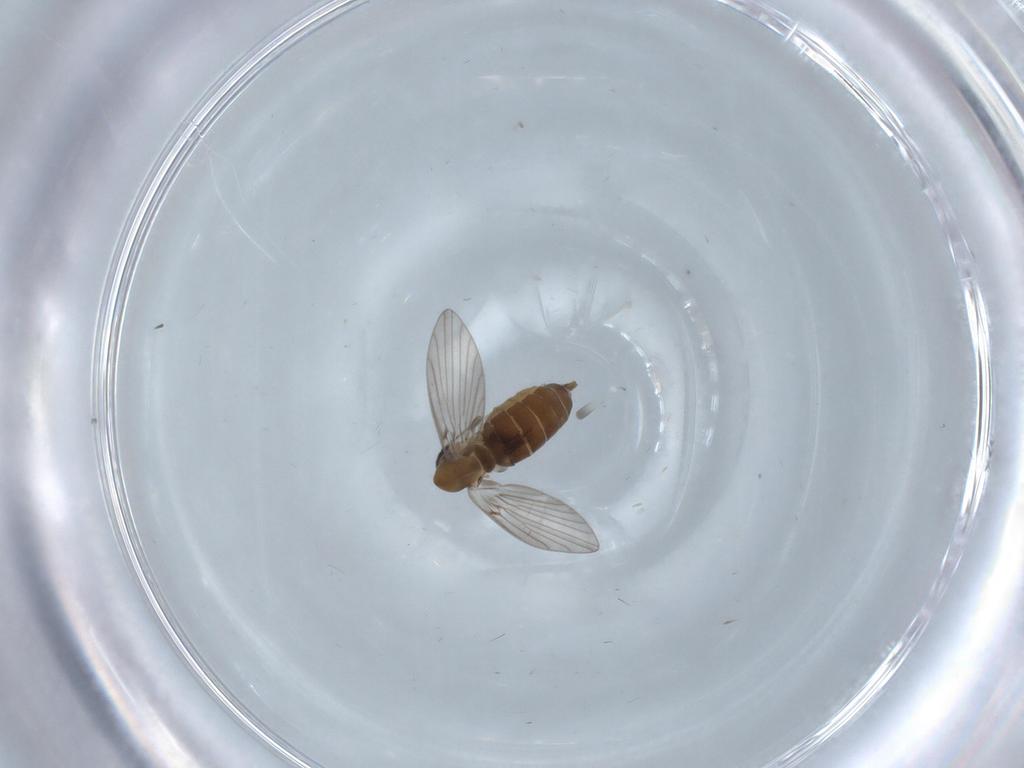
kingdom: Animalia
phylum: Arthropoda
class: Insecta
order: Diptera
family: Psychodidae
